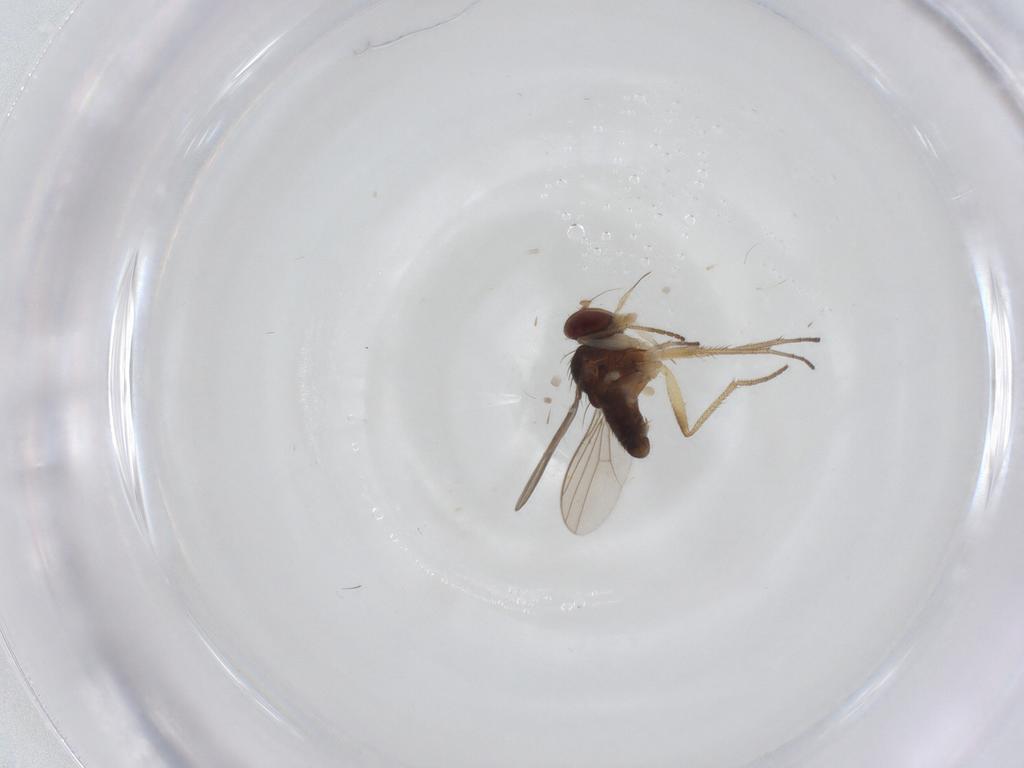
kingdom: Animalia
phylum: Arthropoda
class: Insecta
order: Diptera
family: Dolichopodidae
